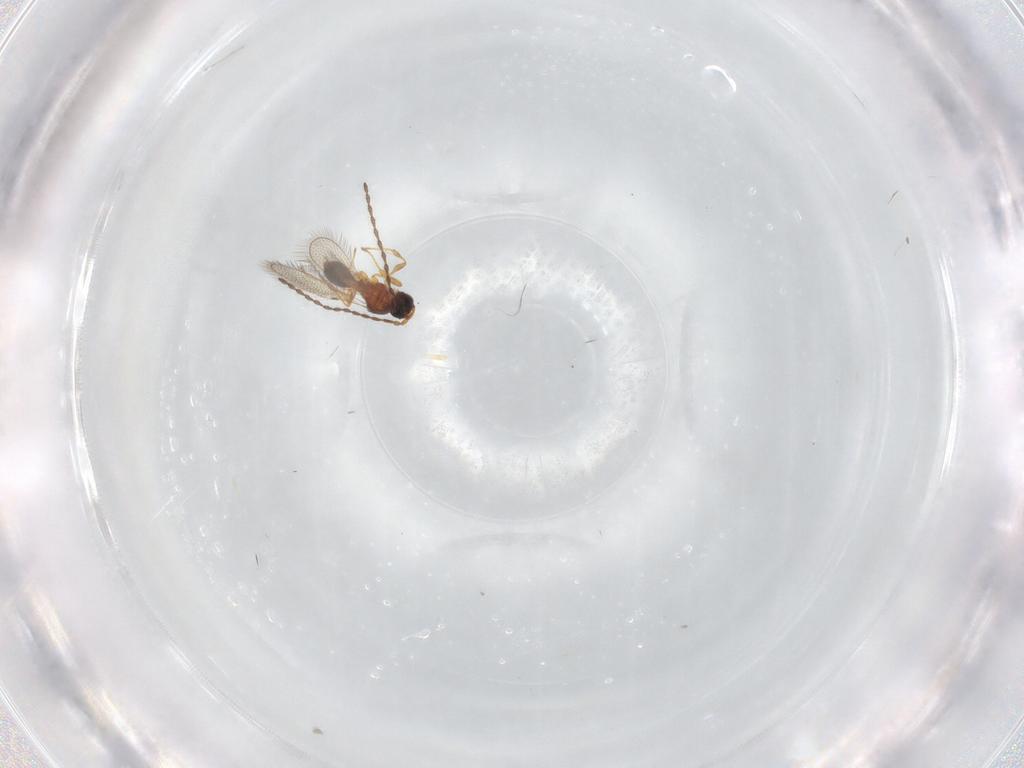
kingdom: Animalia
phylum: Arthropoda
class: Insecta
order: Hymenoptera
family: Diapriidae
